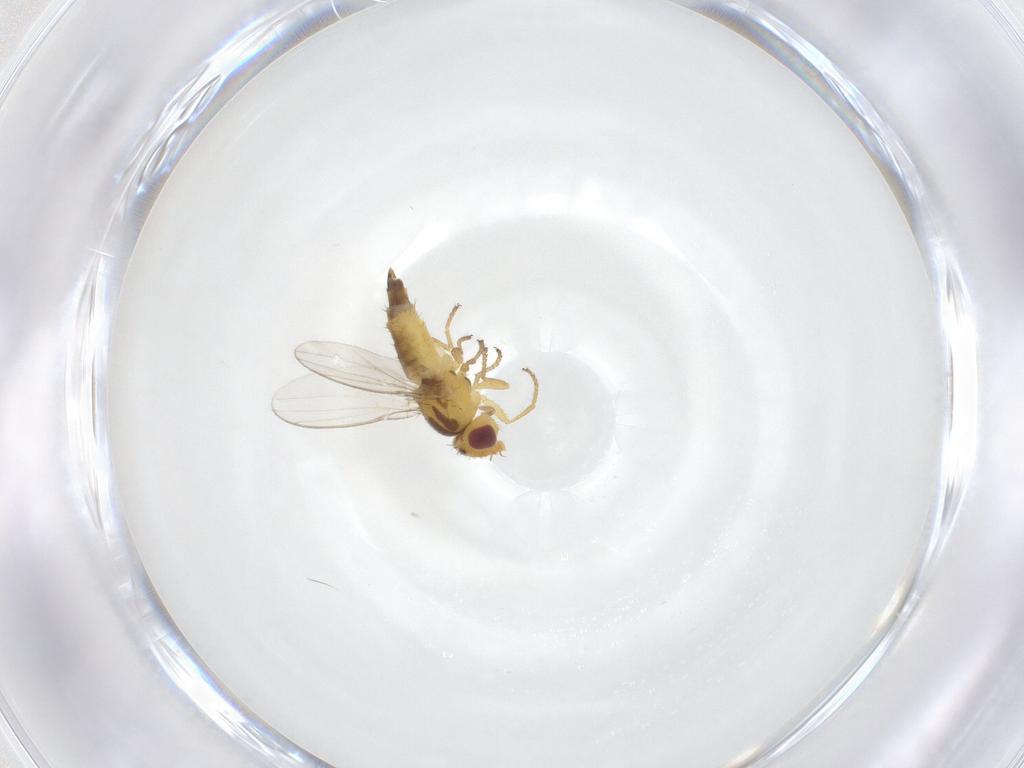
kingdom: Animalia
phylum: Arthropoda
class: Insecta
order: Diptera
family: Chloropidae
